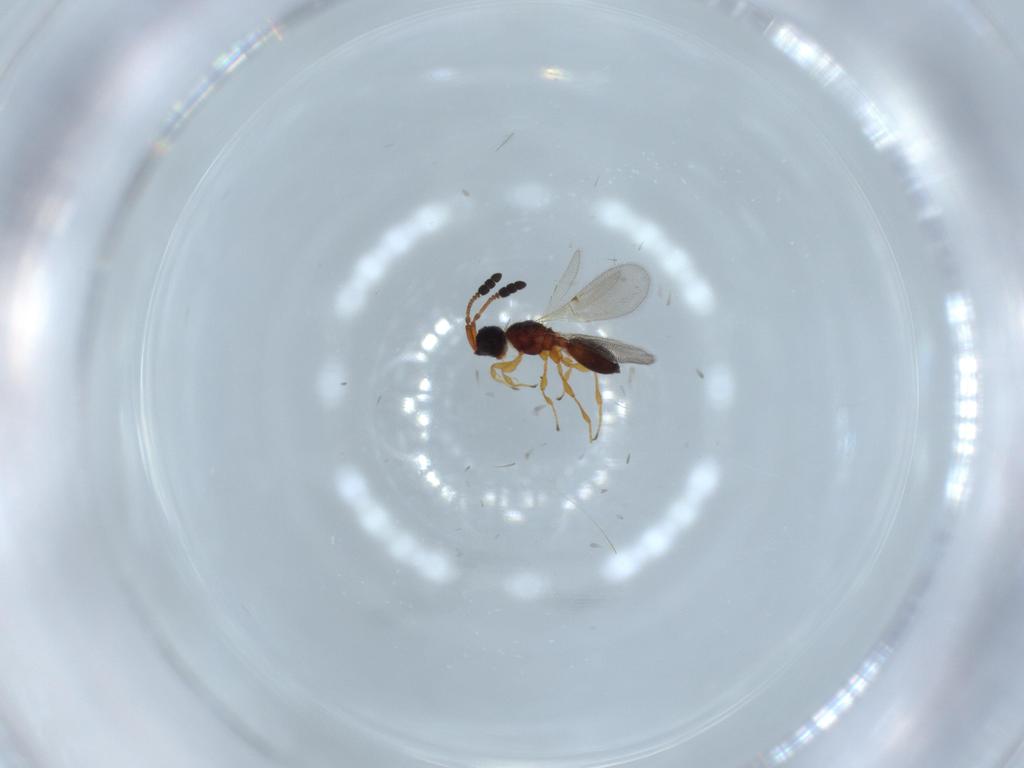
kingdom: Animalia
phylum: Arthropoda
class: Insecta
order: Hymenoptera
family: Diapriidae
